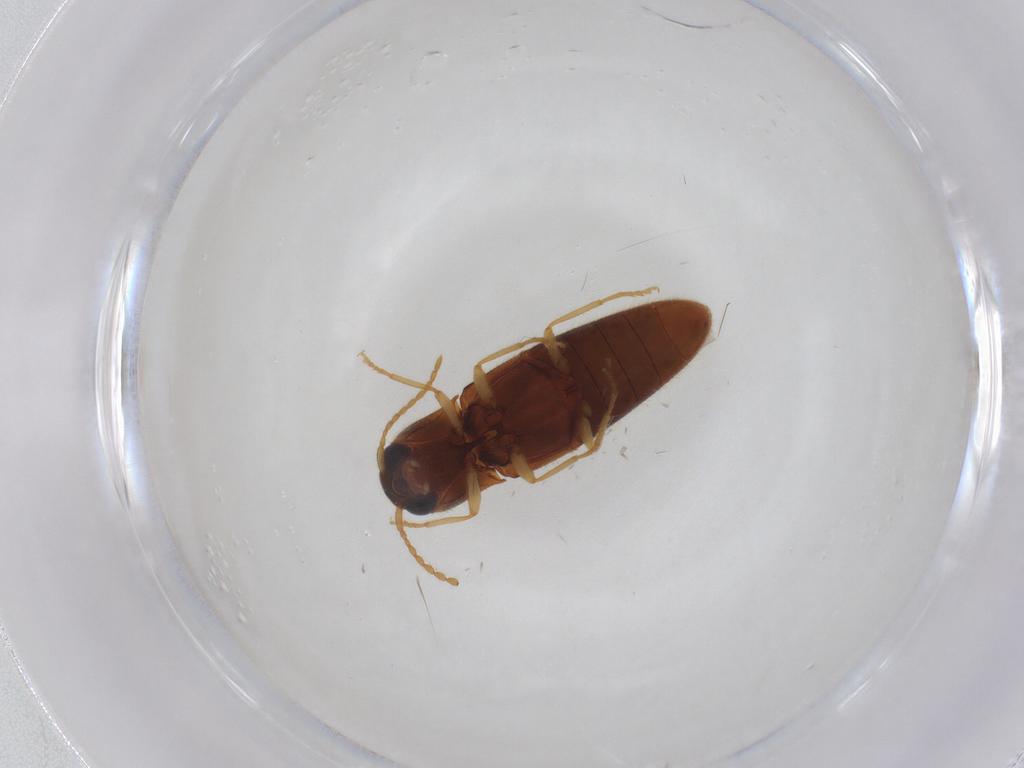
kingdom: Animalia
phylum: Arthropoda
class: Insecta
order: Coleoptera
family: Elateridae
